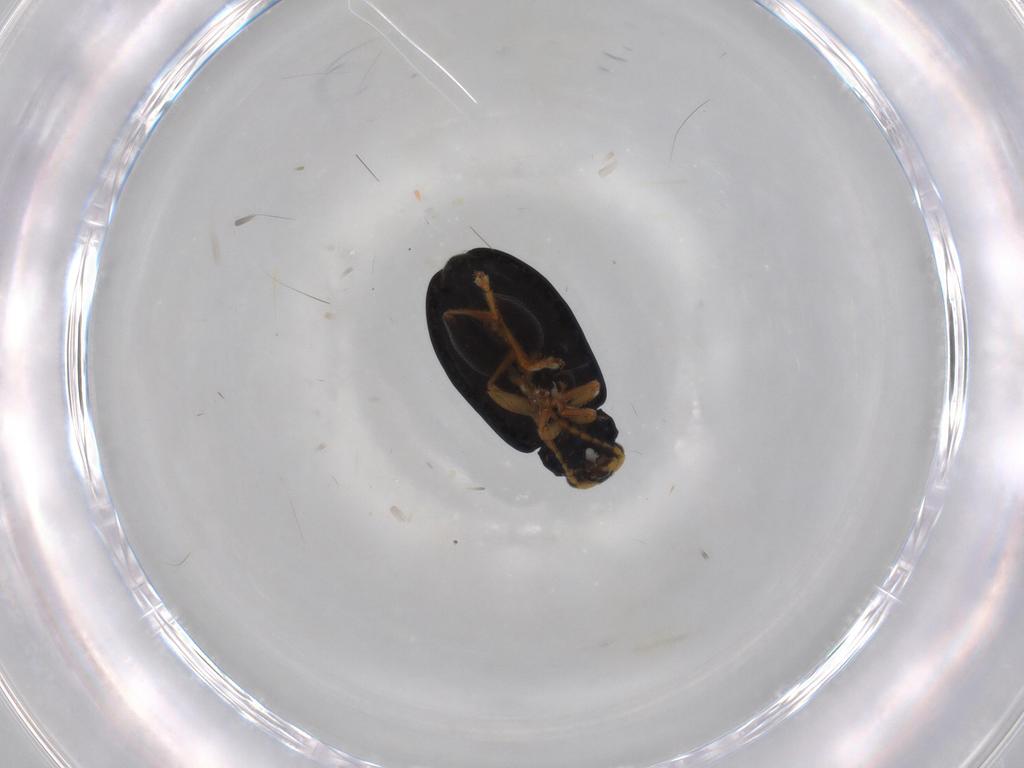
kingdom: Animalia
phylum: Arthropoda
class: Insecta
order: Coleoptera
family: Chrysomelidae
